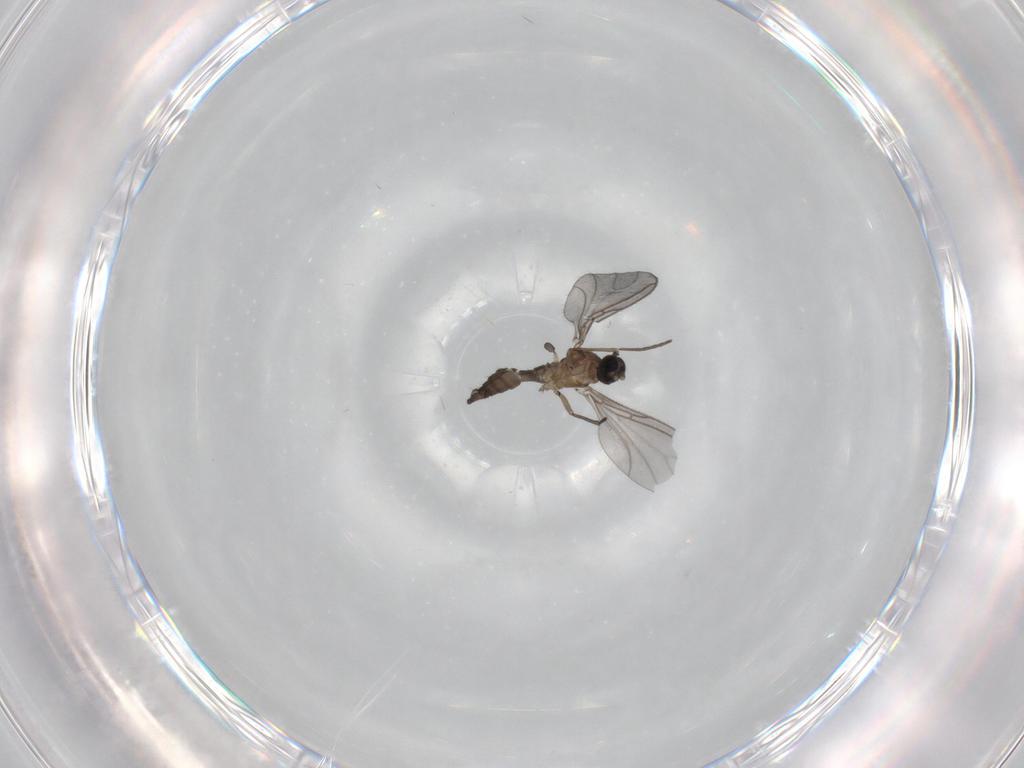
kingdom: Animalia
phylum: Arthropoda
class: Insecta
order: Diptera
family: Sciaridae
